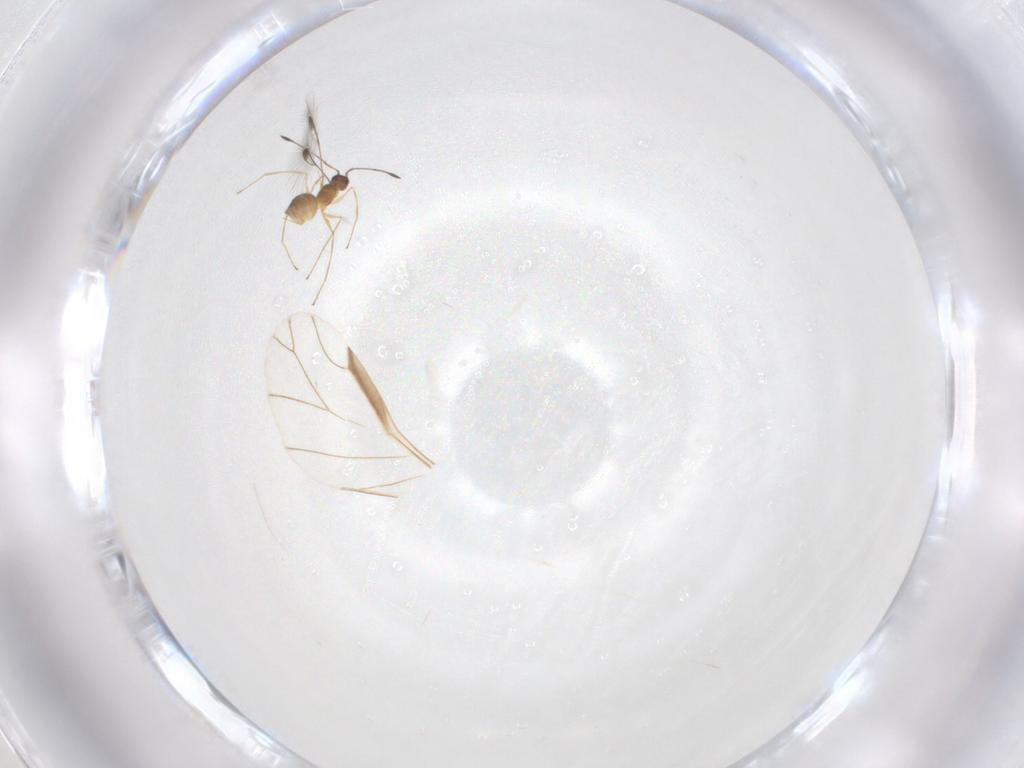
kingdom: Animalia
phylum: Arthropoda
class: Insecta
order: Hymenoptera
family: Mymaridae
